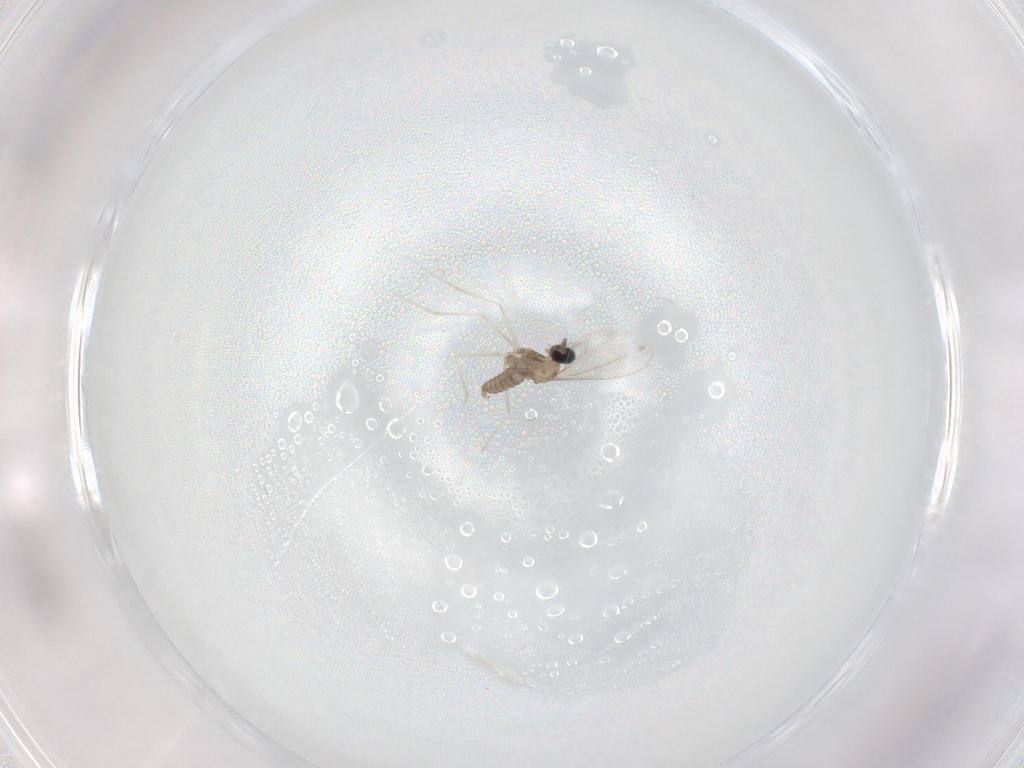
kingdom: Animalia
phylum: Arthropoda
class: Insecta
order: Diptera
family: Cecidomyiidae
